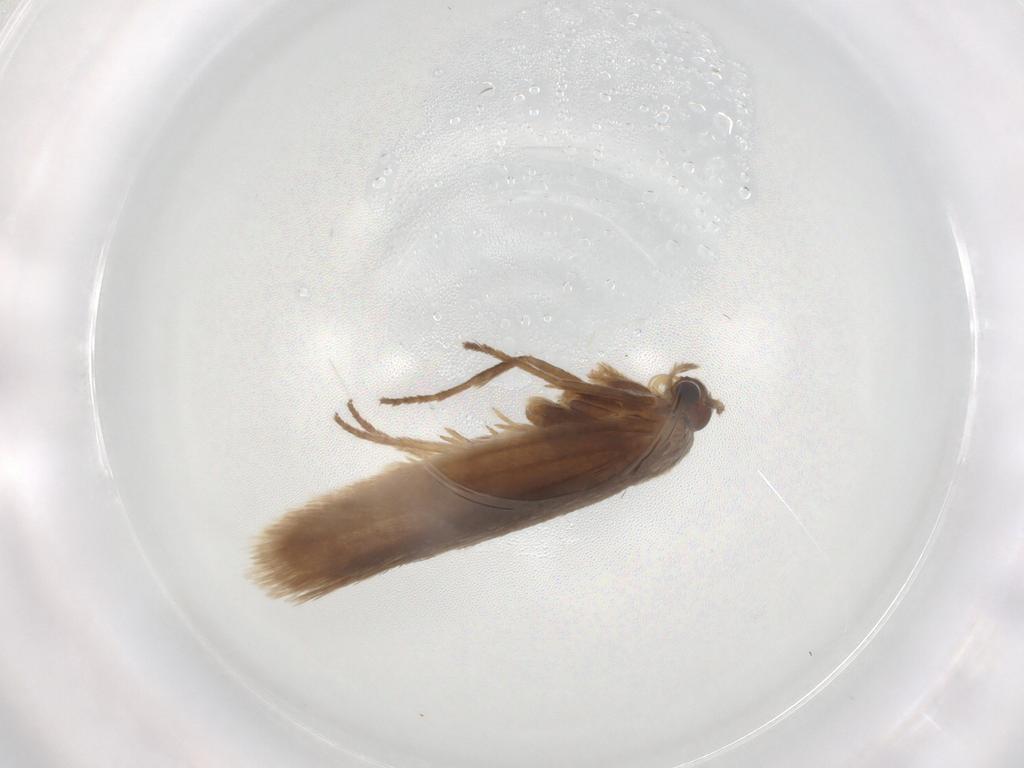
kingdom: Animalia
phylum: Arthropoda
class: Insecta
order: Lepidoptera
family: Limacodidae
